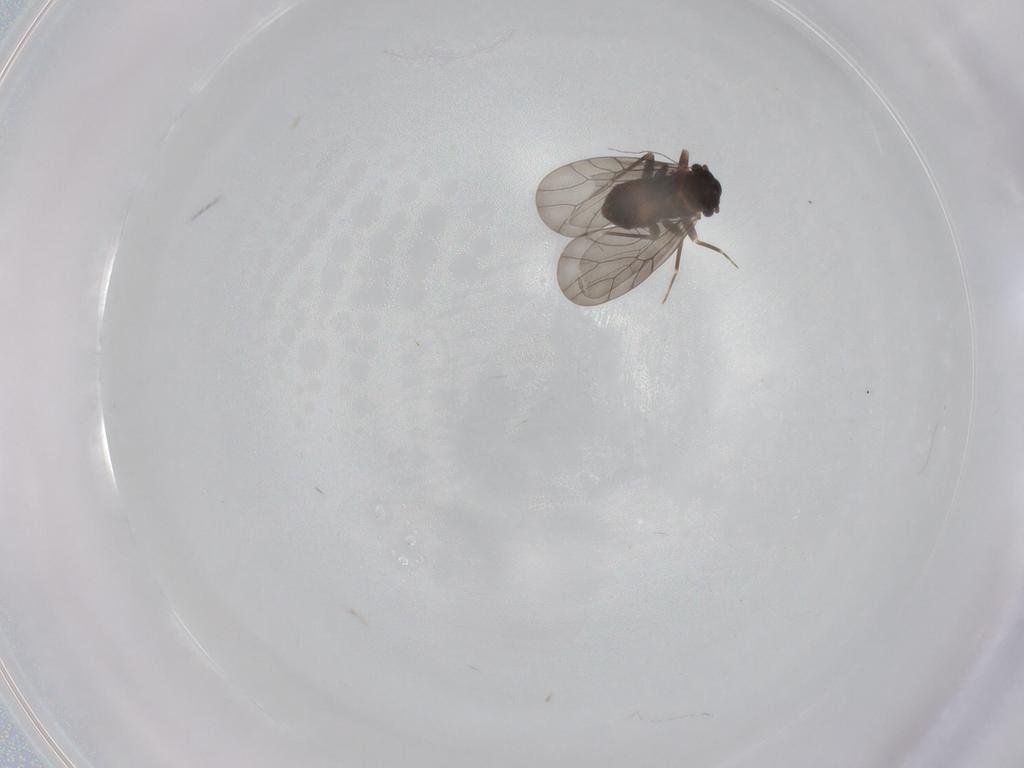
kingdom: Animalia
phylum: Arthropoda
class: Insecta
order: Psocodea
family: Lepidopsocidae
